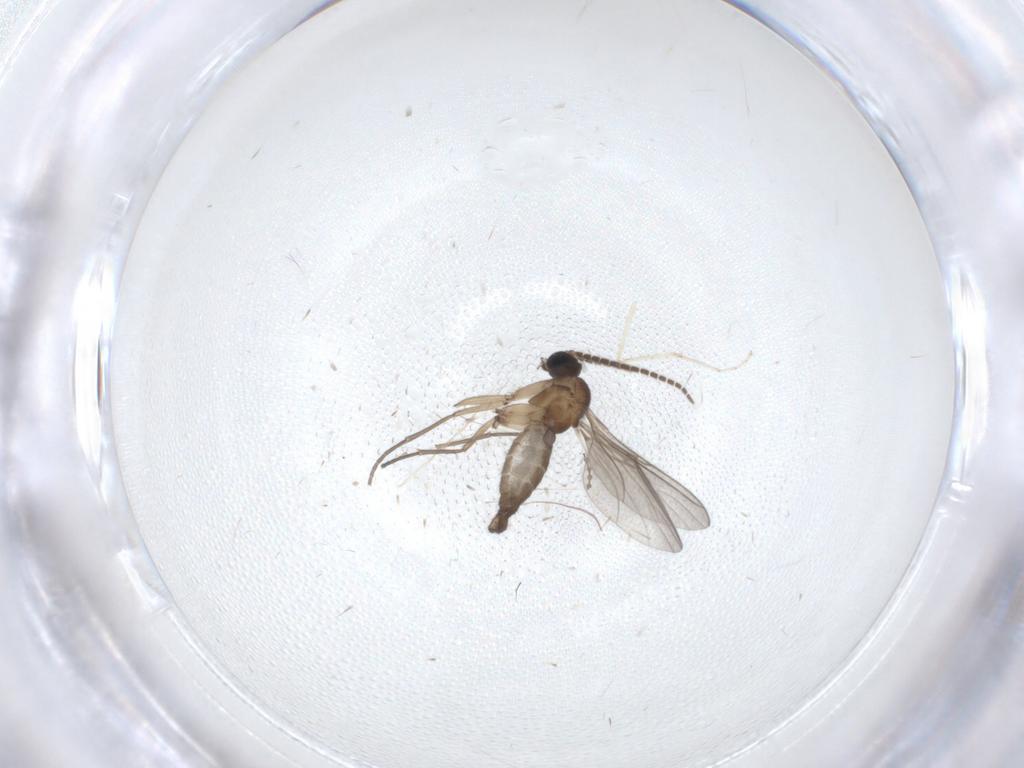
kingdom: Animalia
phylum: Arthropoda
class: Insecta
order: Diptera
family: Sciaridae
